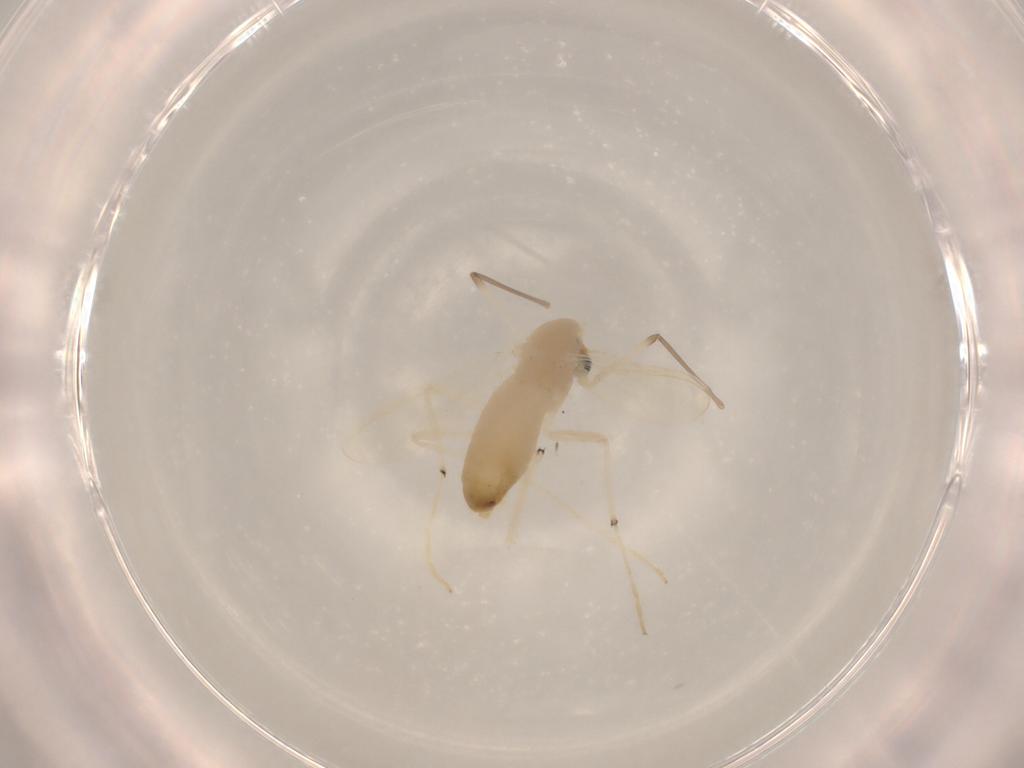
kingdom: Animalia
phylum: Arthropoda
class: Insecta
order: Diptera
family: Chironomidae
